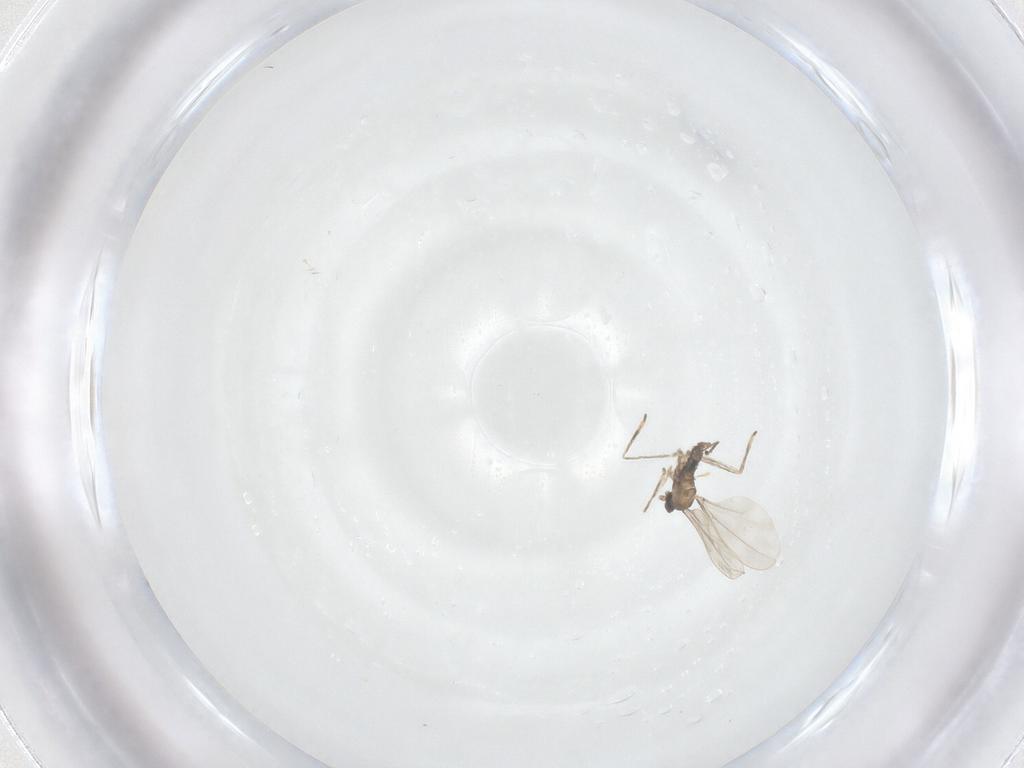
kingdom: Animalia
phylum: Arthropoda
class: Insecta
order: Diptera
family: Cecidomyiidae
